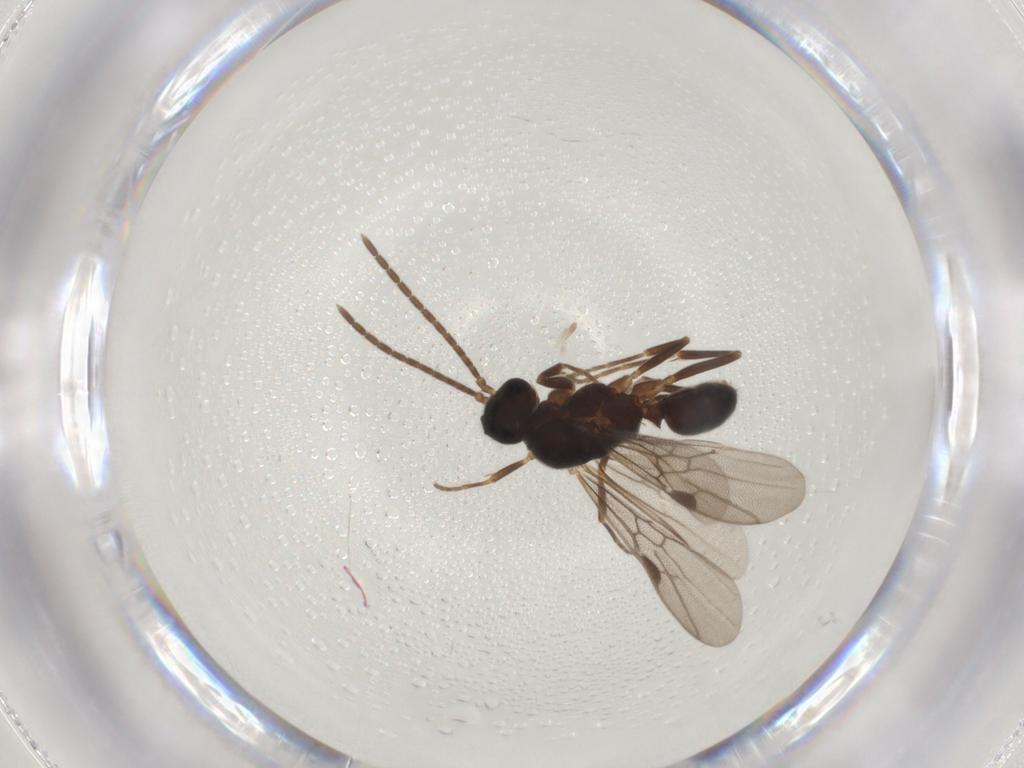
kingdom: Animalia
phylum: Arthropoda
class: Insecta
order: Hymenoptera
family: Formicidae
